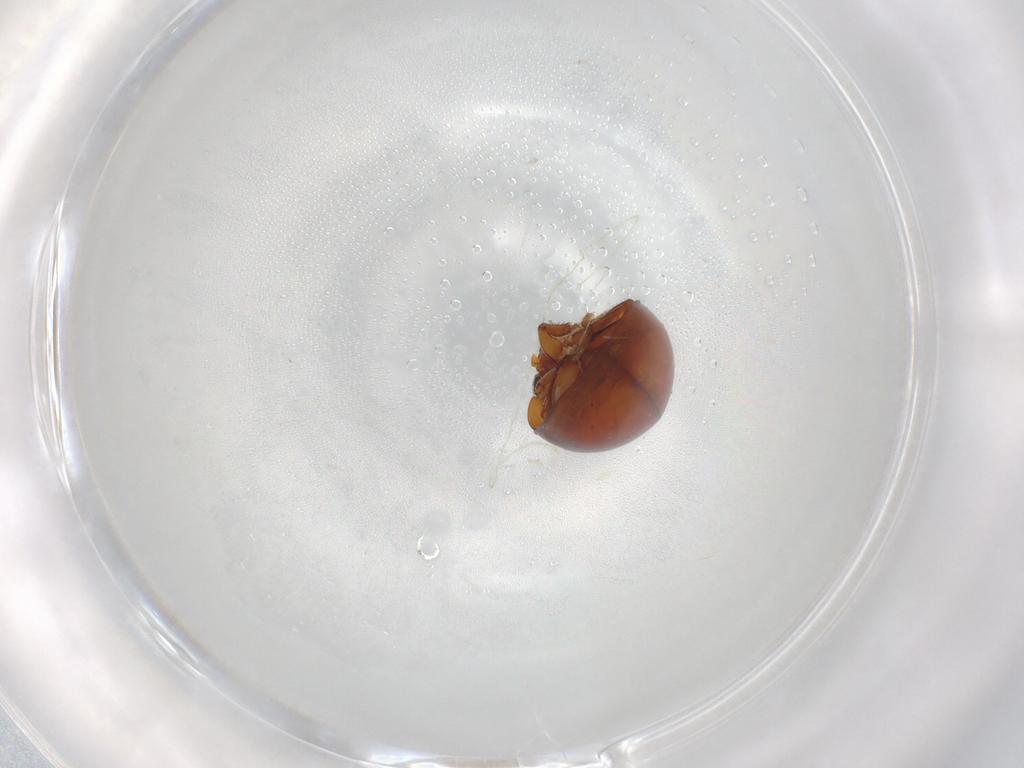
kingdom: Animalia
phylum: Arthropoda
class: Insecta
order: Coleoptera
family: Phalacridae
